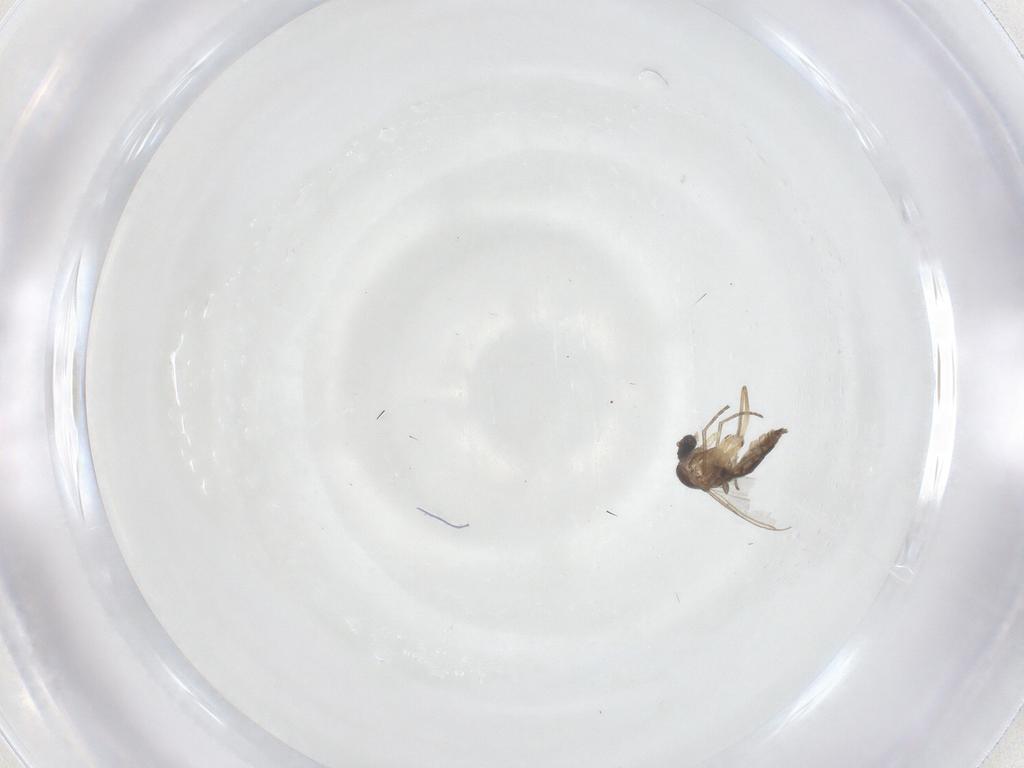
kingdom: Animalia
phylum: Arthropoda
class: Insecta
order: Diptera
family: Sciaridae
